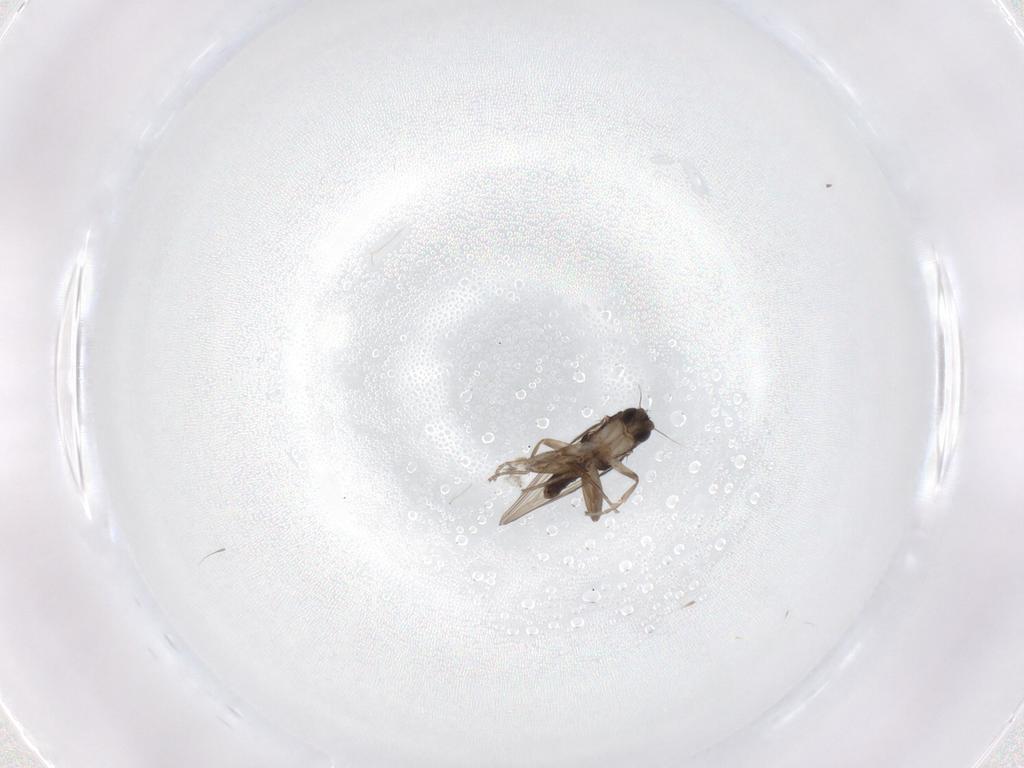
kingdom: Animalia
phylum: Arthropoda
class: Insecta
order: Diptera
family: Phoridae
